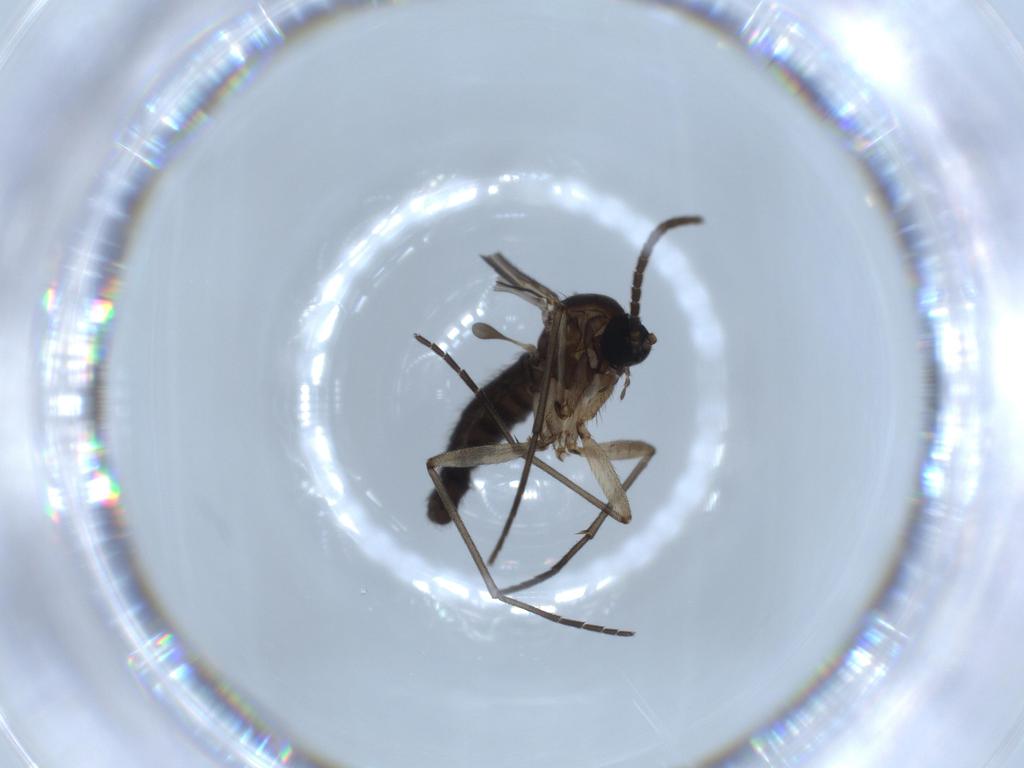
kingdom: Animalia
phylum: Arthropoda
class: Insecta
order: Diptera
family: Sciaridae
